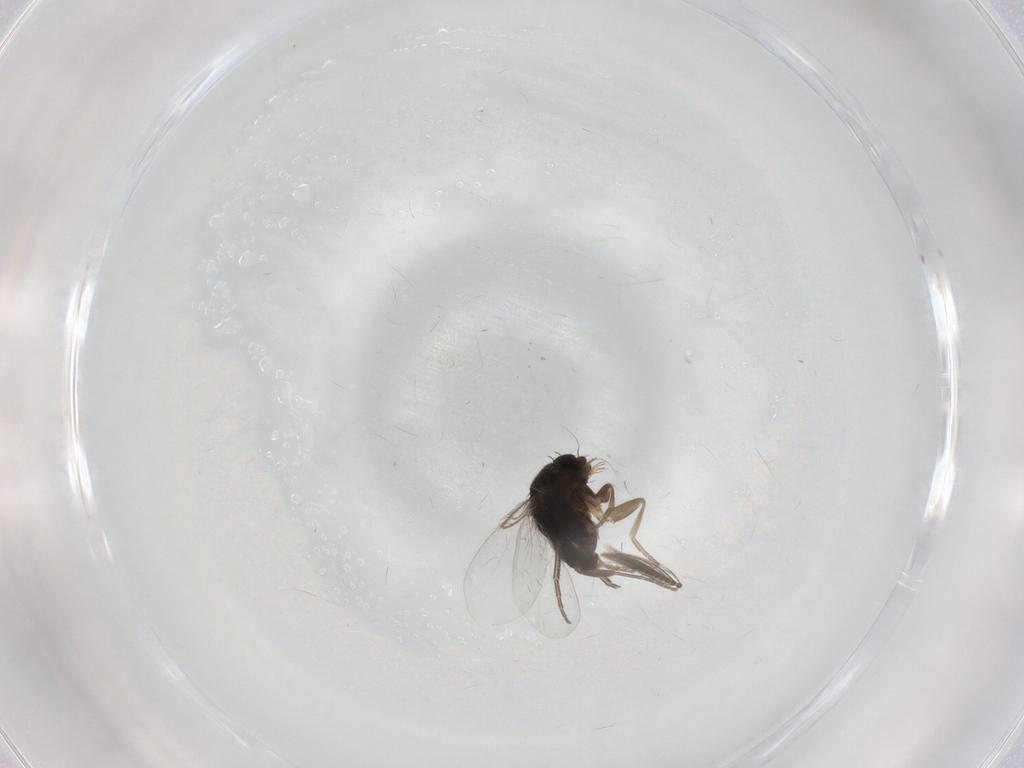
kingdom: Animalia
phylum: Arthropoda
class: Insecta
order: Diptera
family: Phoridae
